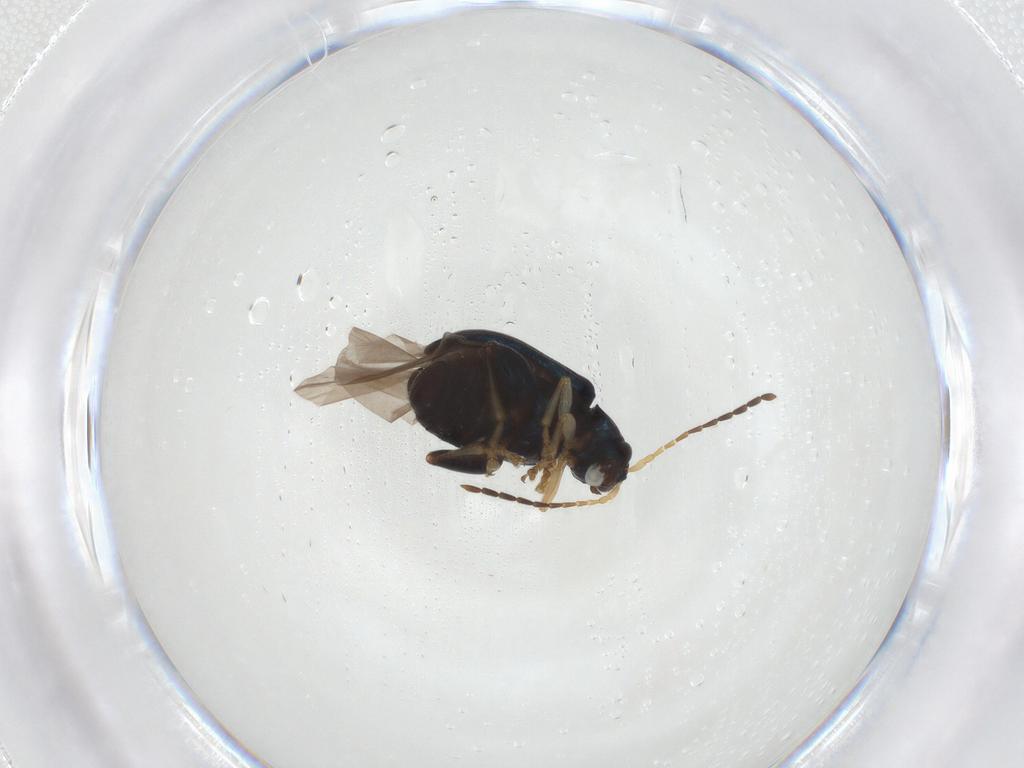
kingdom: Animalia
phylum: Arthropoda
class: Insecta
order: Coleoptera
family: Chrysomelidae
